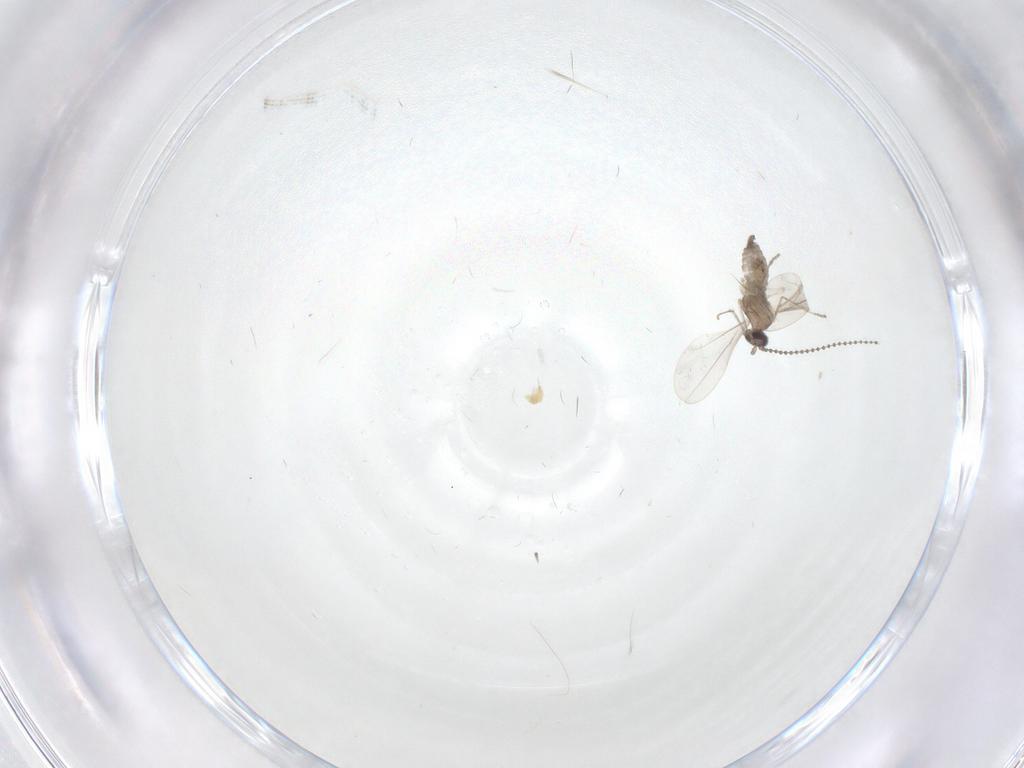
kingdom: Animalia
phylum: Arthropoda
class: Insecta
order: Diptera
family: Cecidomyiidae
